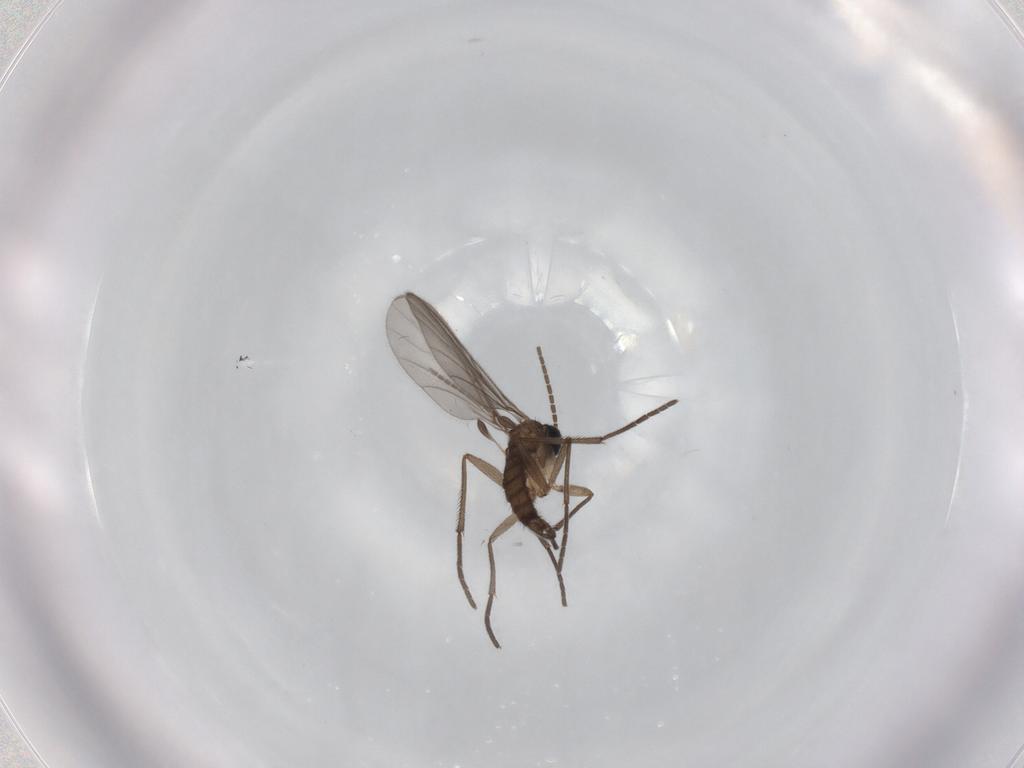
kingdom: Animalia
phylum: Arthropoda
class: Insecta
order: Diptera
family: Sciaridae
